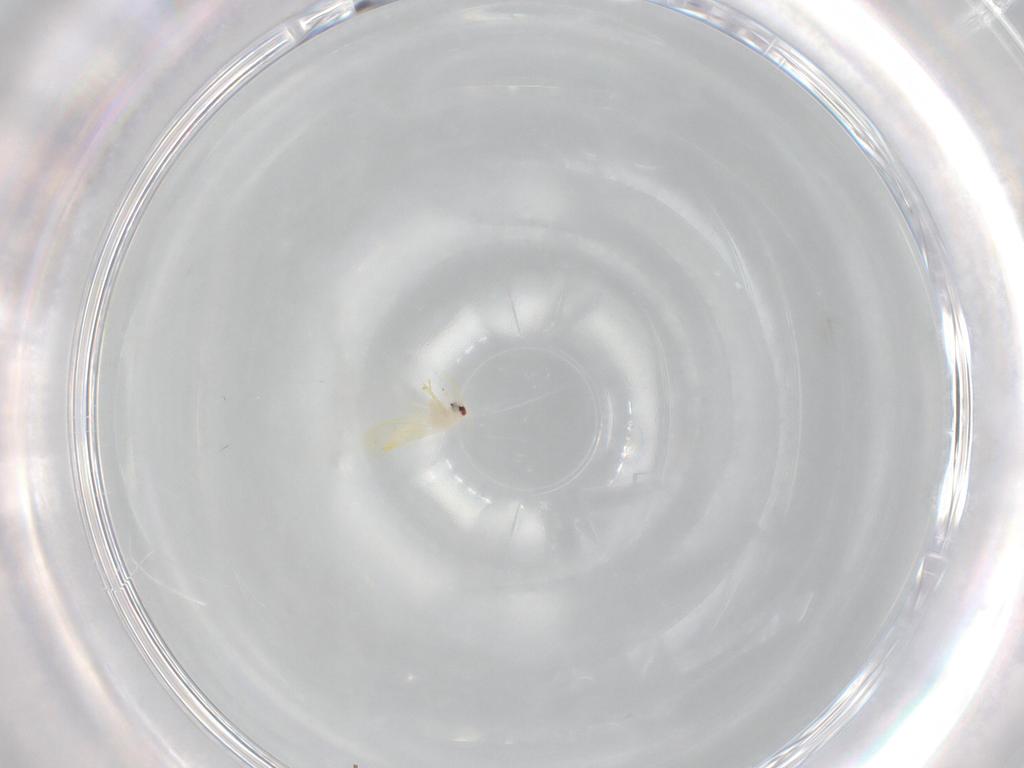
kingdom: Animalia
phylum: Arthropoda
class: Insecta
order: Hemiptera
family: Aleyrodidae
